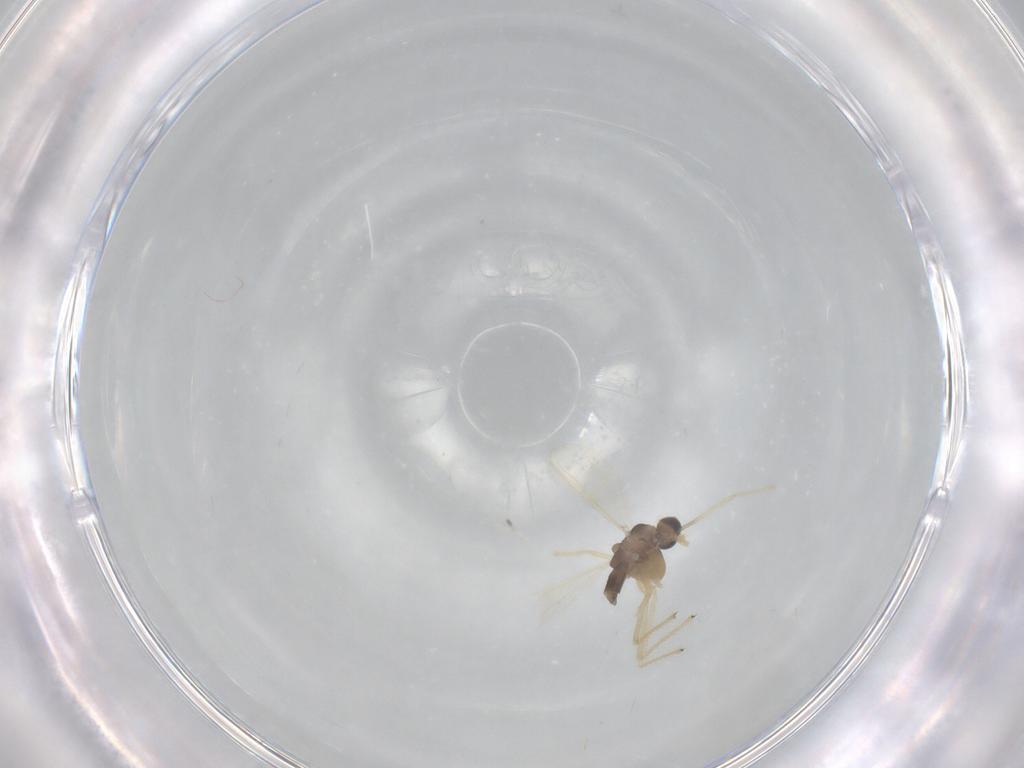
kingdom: Animalia
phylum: Arthropoda
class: Insecta
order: Diptera
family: Chironomidae
